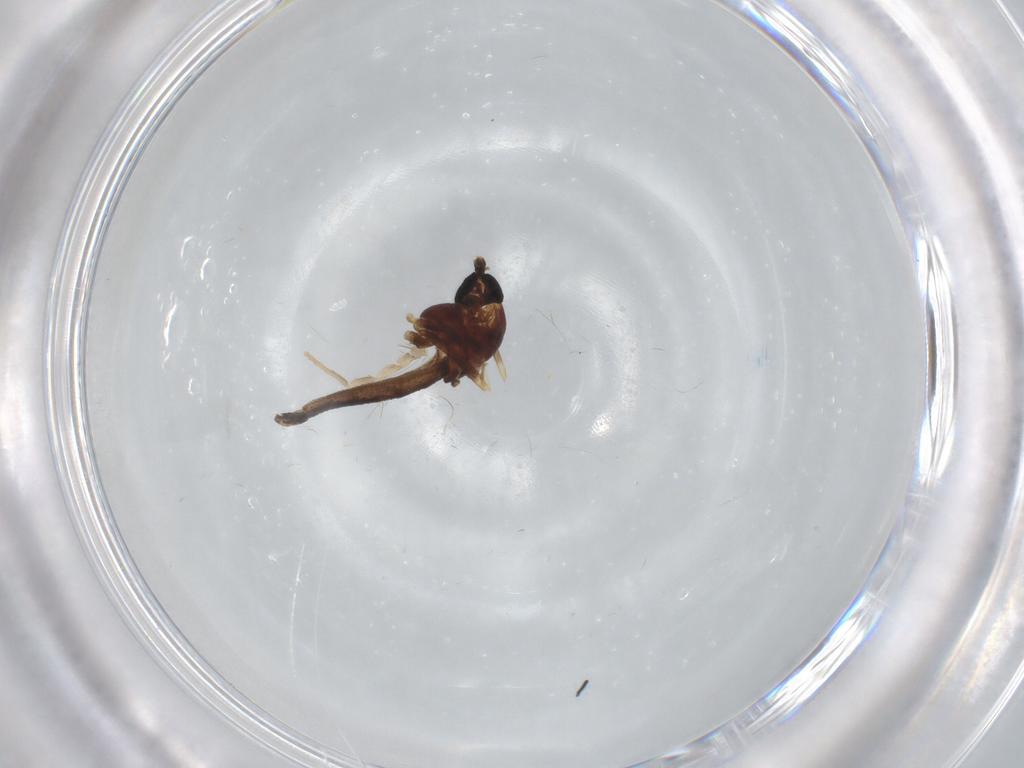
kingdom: Animalia
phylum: Arthropoda
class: Insecta
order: Diptera
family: Chironomidae
